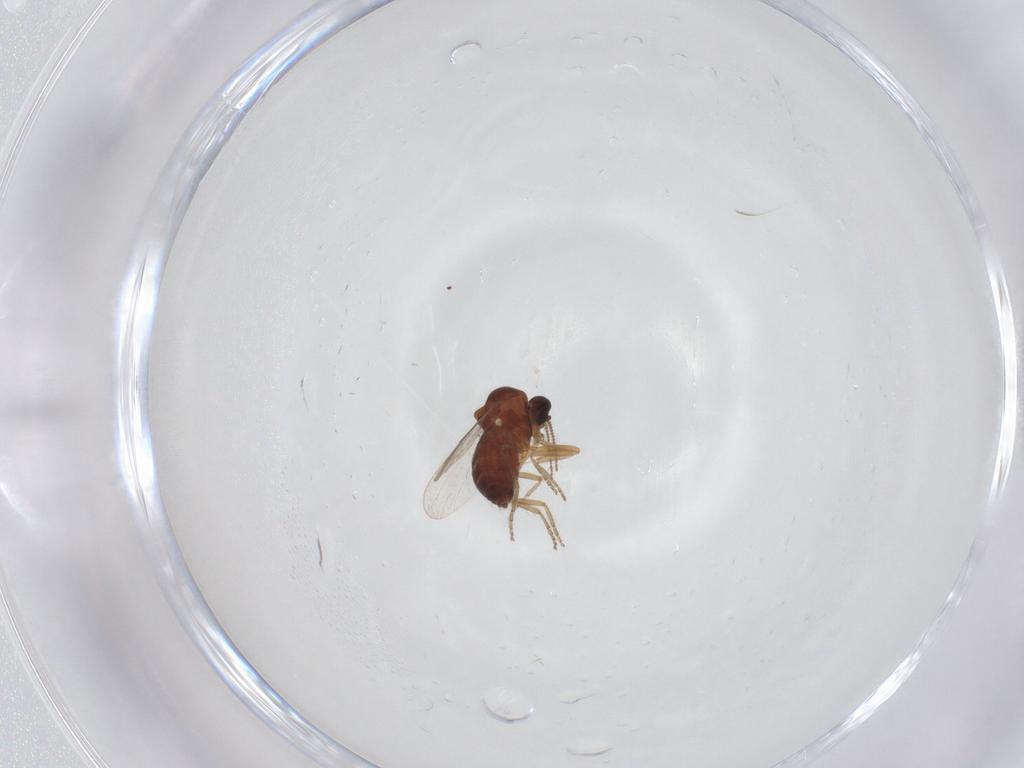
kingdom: Animalia
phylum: Arthropoda
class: Insecta
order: Diptera
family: Ceratopogonidae
